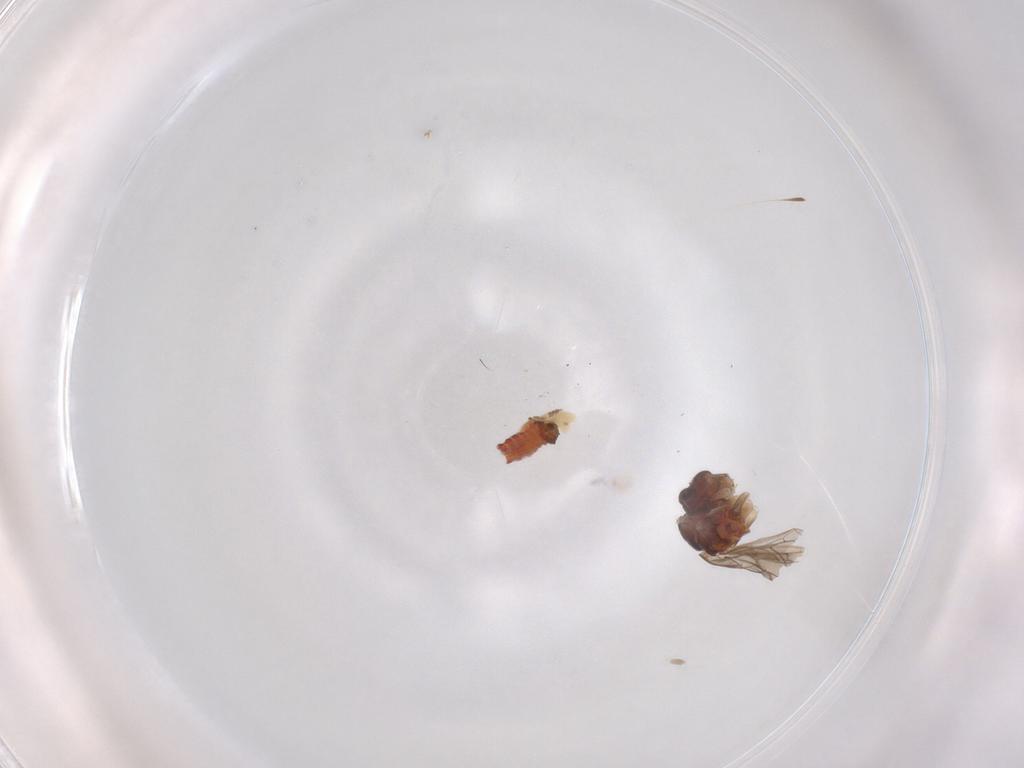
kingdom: Animalia
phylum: Arthropoda
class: Insecta
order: Psocodea
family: Caeciliusidae
